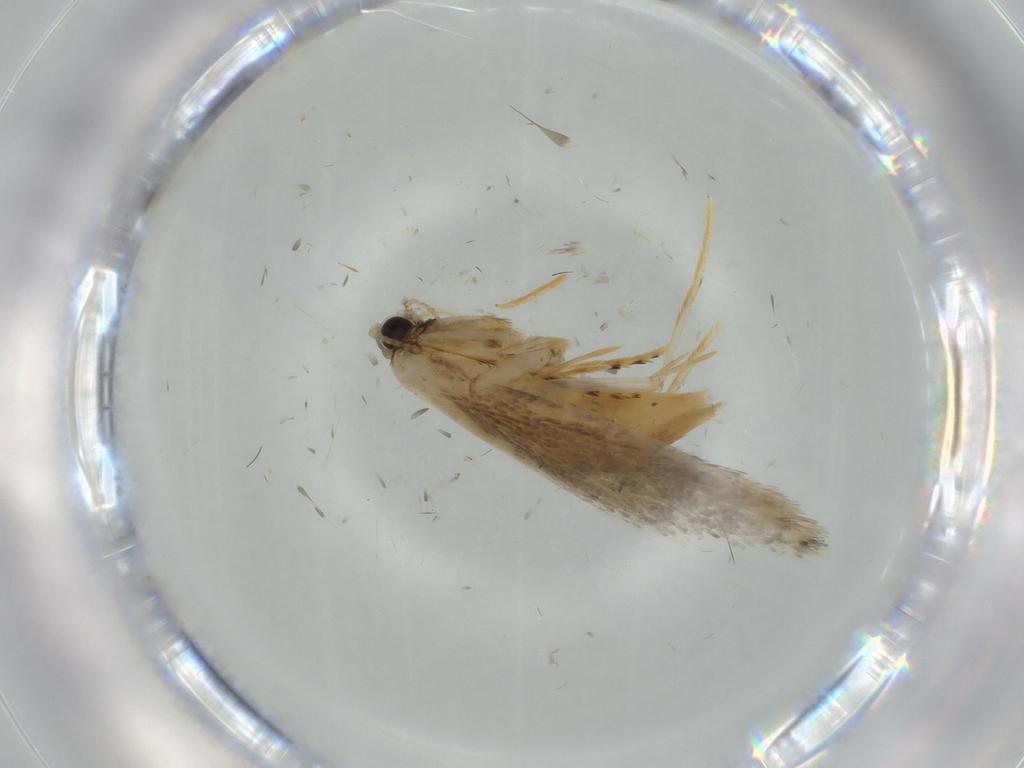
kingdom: Animalia
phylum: Arthropoda
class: Insecta
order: Lepidoptera
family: Tineidae
